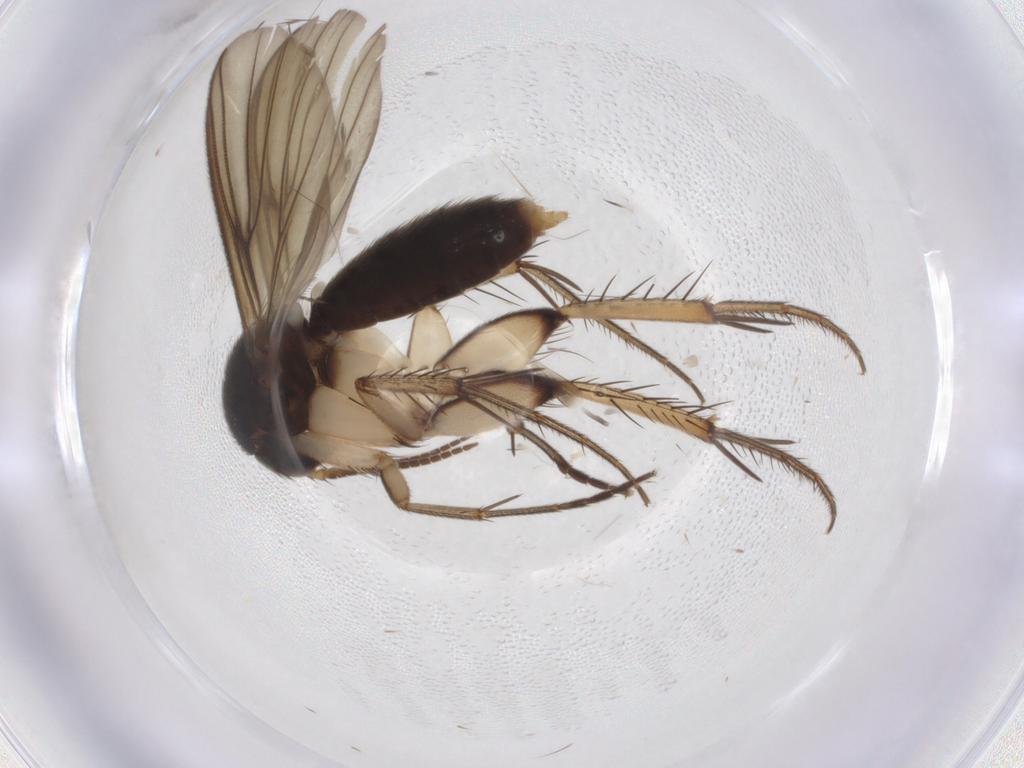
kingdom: Animalia
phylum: Arthropoda
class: Insecta
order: Diptera
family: Mycetophilidae
